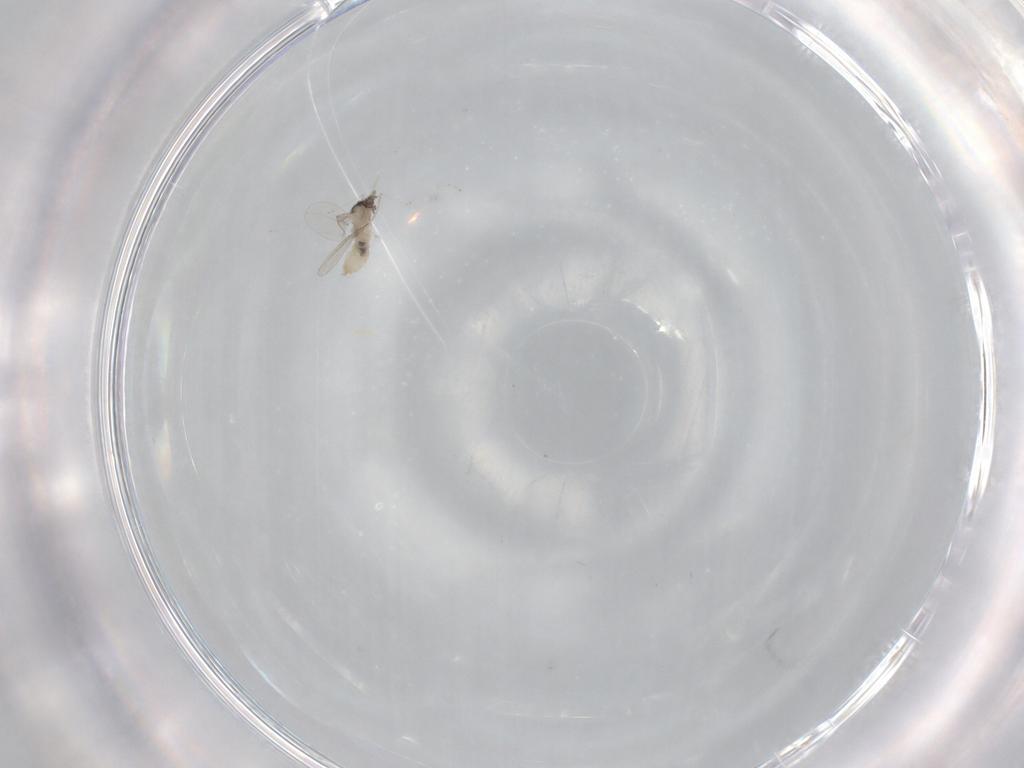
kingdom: Animalia
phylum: Arthropoda
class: Insecta
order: Diptera
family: Cecidomyiidae
